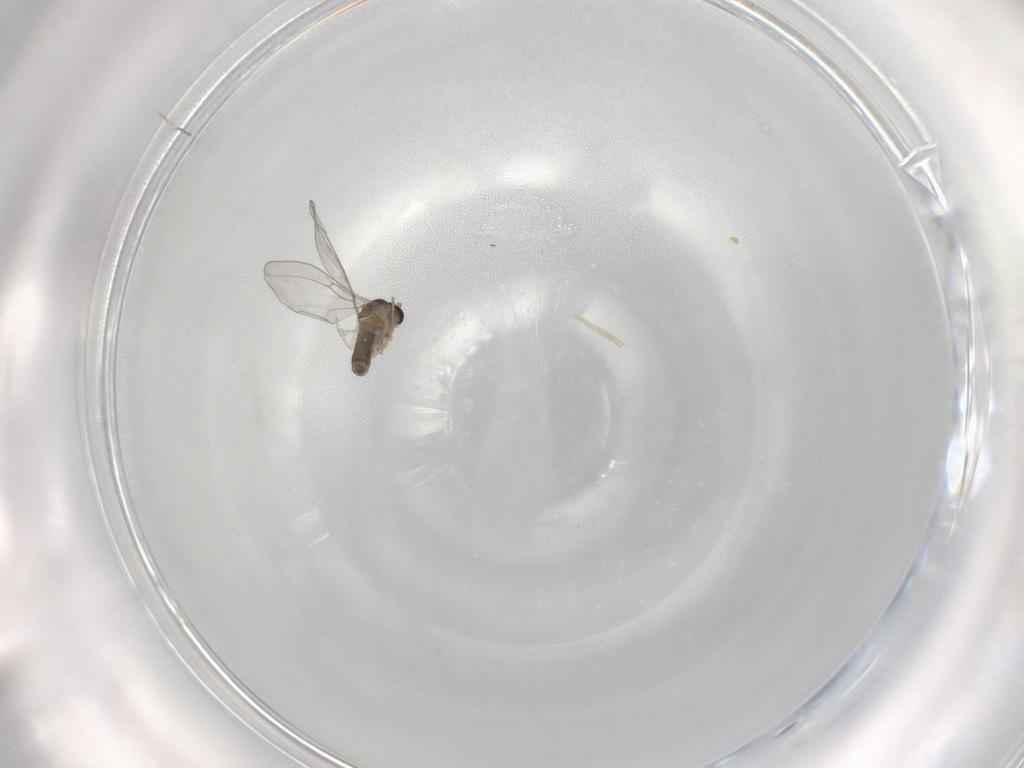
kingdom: Animalia
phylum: Arthropoda
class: Insecta
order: Diptera
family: Cecidomyiidae
